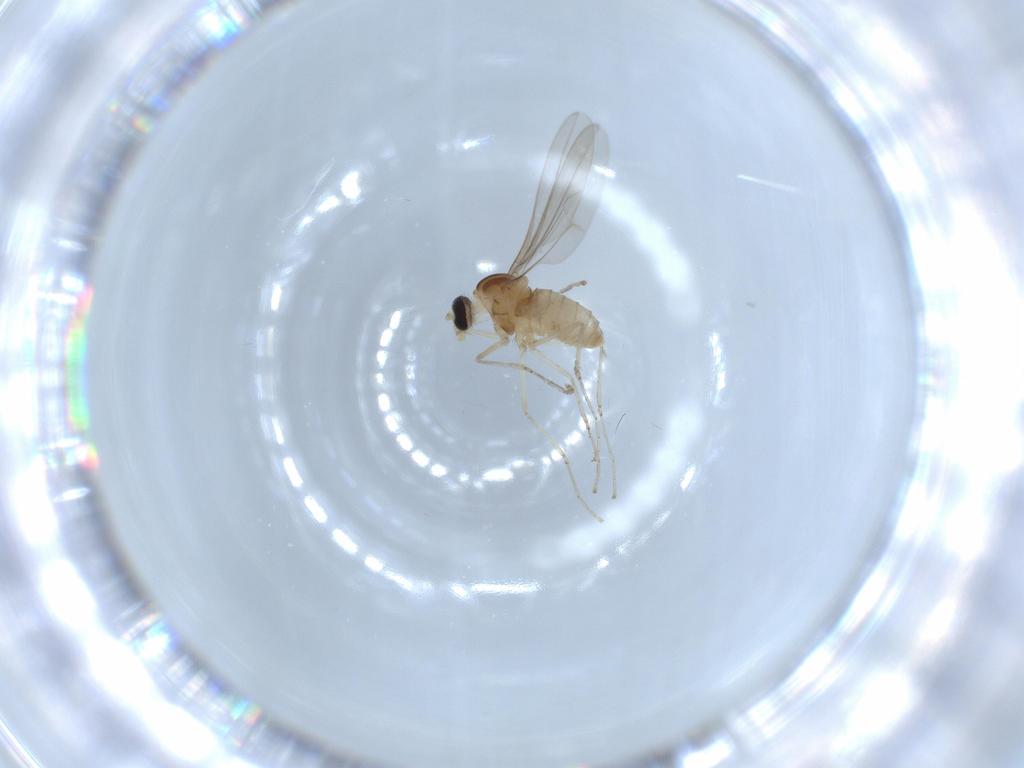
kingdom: Animalia
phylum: Arthropoda
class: Insecta
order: Diptera
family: Cecidomyiidae
